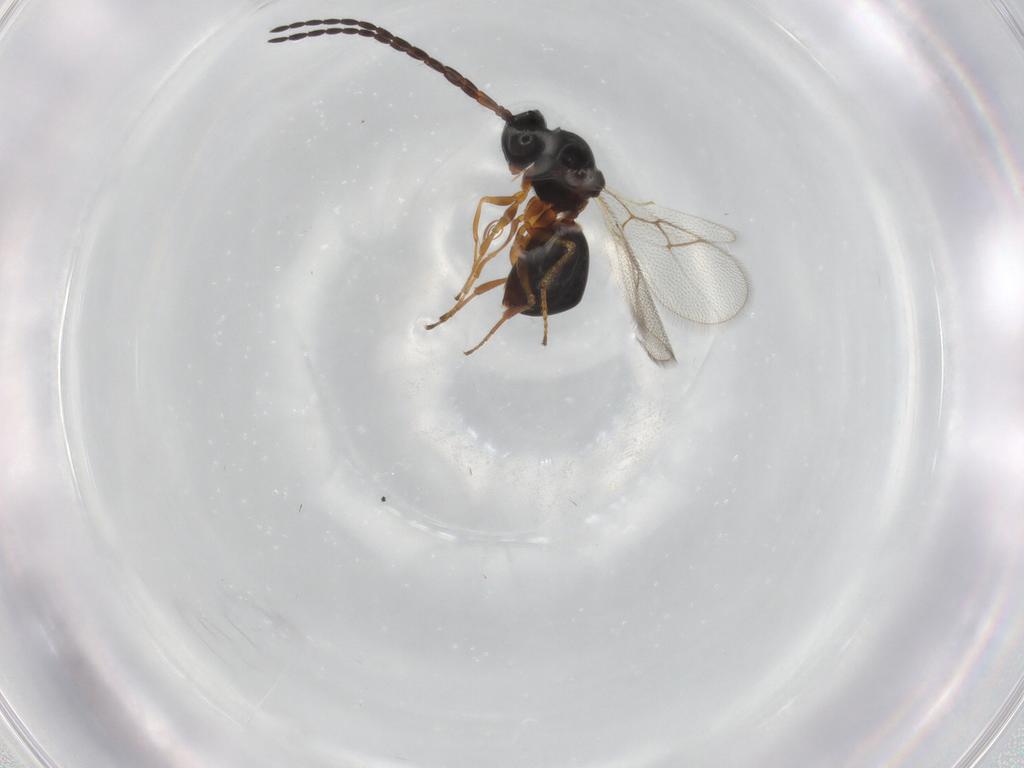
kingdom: Animalia
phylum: Arthropoda
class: Insecta
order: Hymenoptera
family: Figitidae
